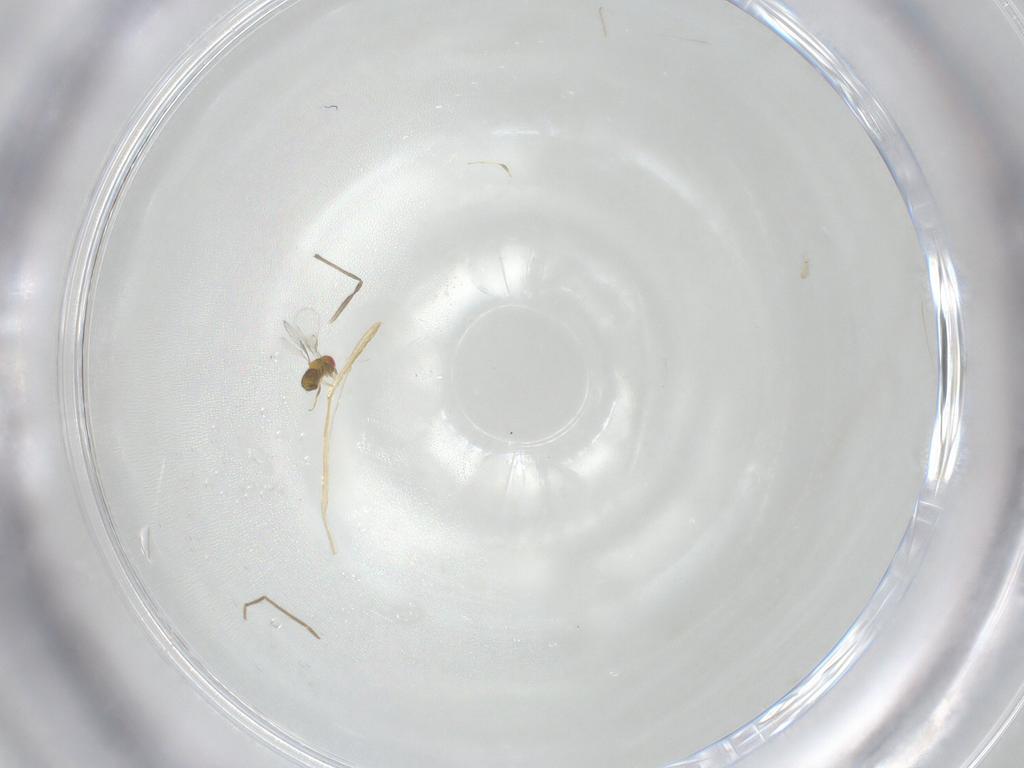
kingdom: Animalia
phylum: Arthropoda
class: Insecta
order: Diptera
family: Chironomidae
